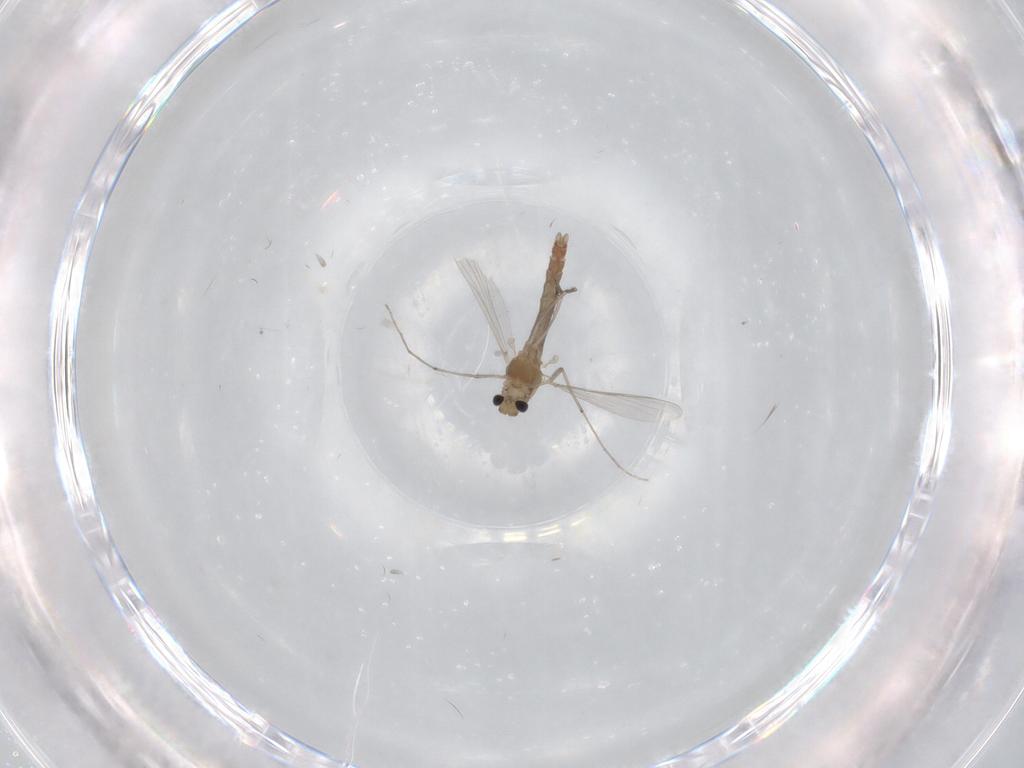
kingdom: Animalia
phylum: Arthropoda
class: Insecta
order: Diptera
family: Chironomidae
